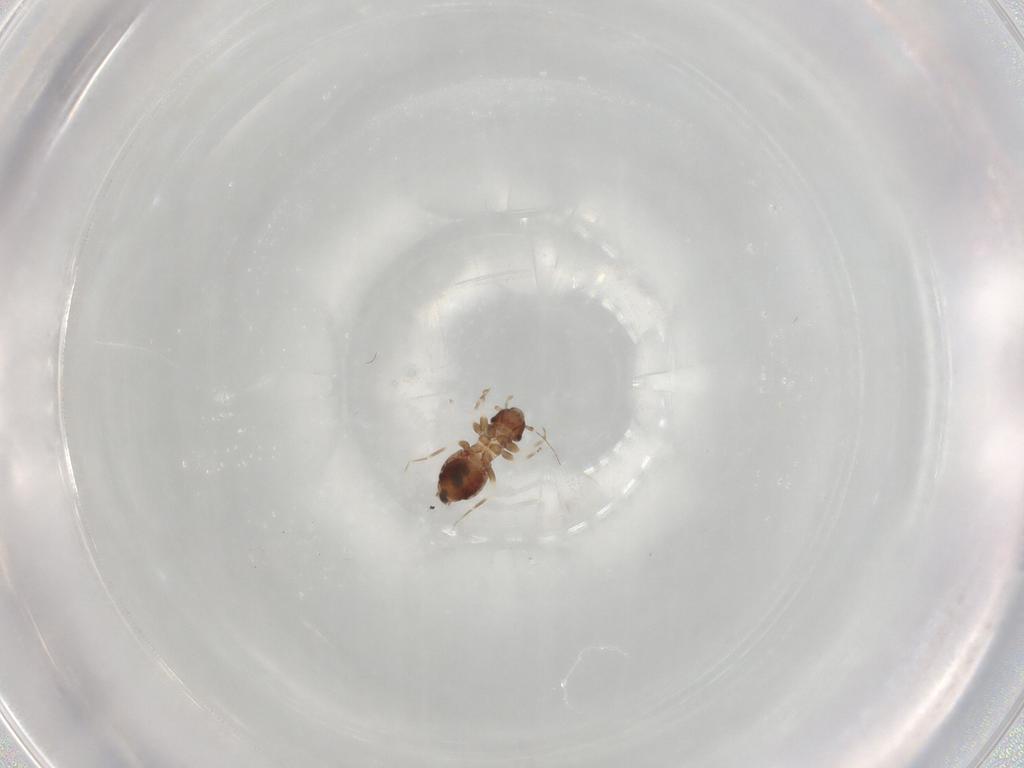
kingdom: Animalia
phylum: Arthropoda
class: Insecta
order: Psocodea
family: Lepidopsocidae
